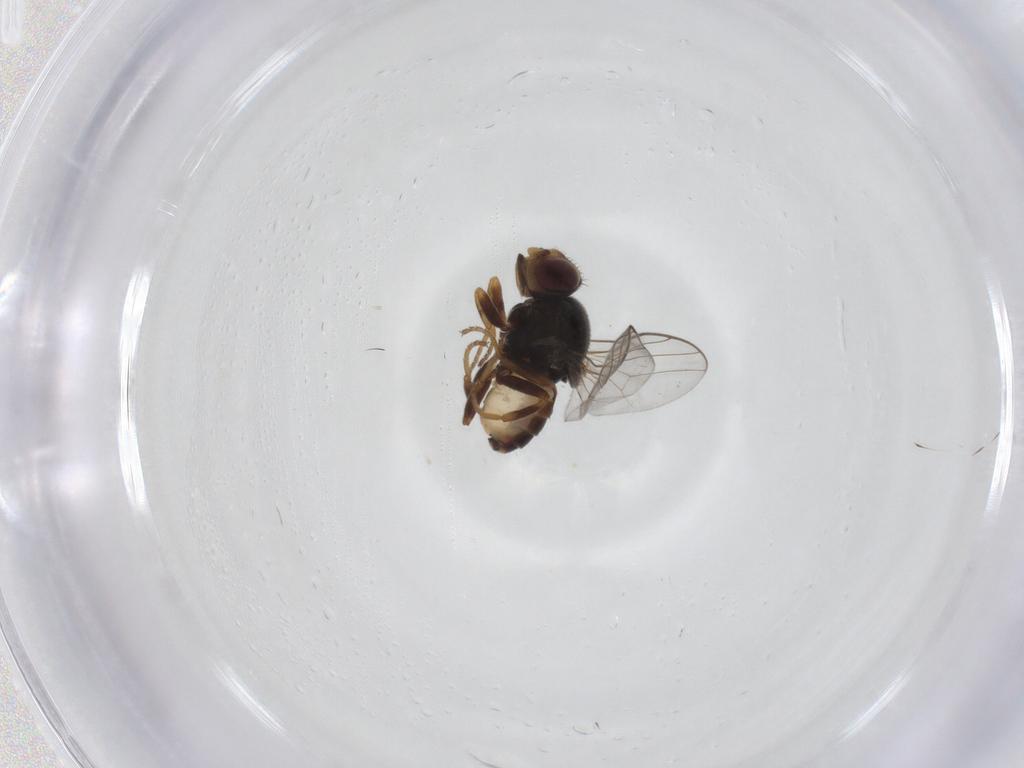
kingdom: Animalia
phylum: Arthropoda
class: Insecta
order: Diptera
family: Chloropidae
